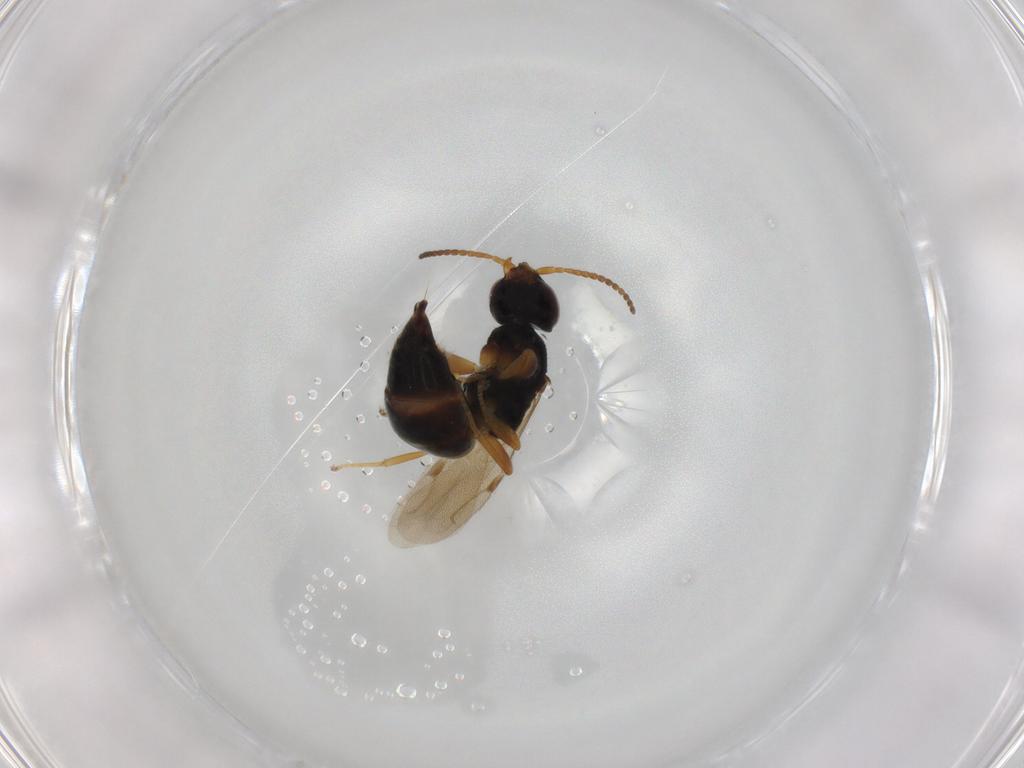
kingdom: Animalia
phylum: Arthropoda
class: Insecta
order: Hymenoptera
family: Bethylidae
